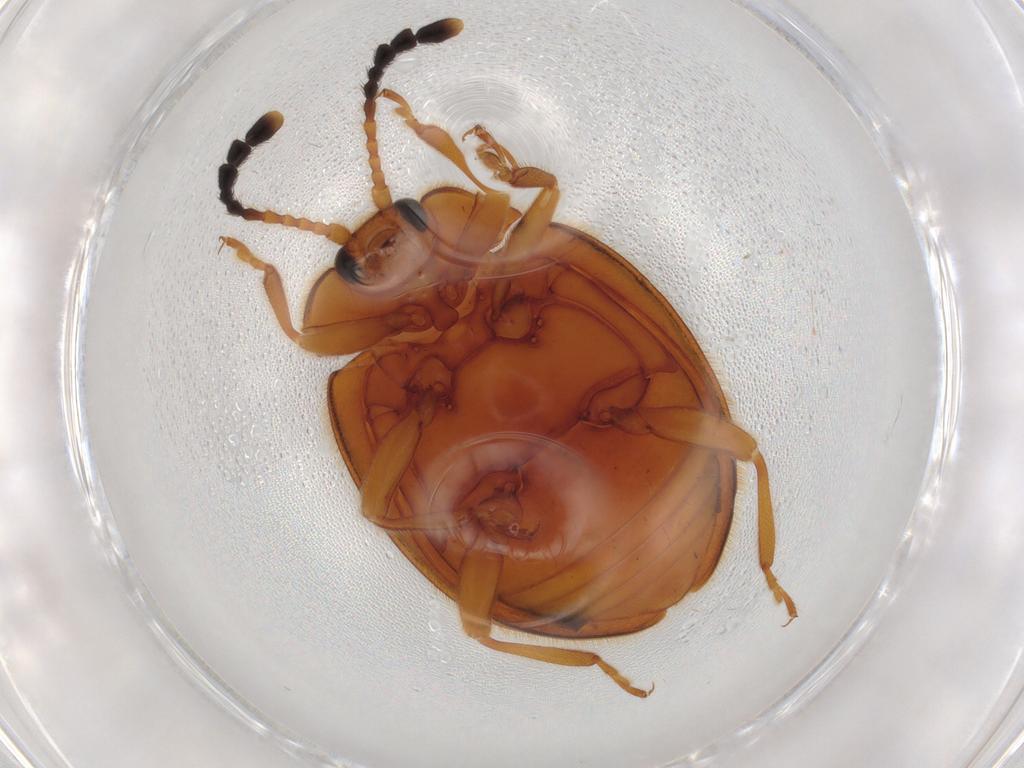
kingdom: Animalia
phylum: Arthropoda
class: Insecta
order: Coleoptera
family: Endomychidae
